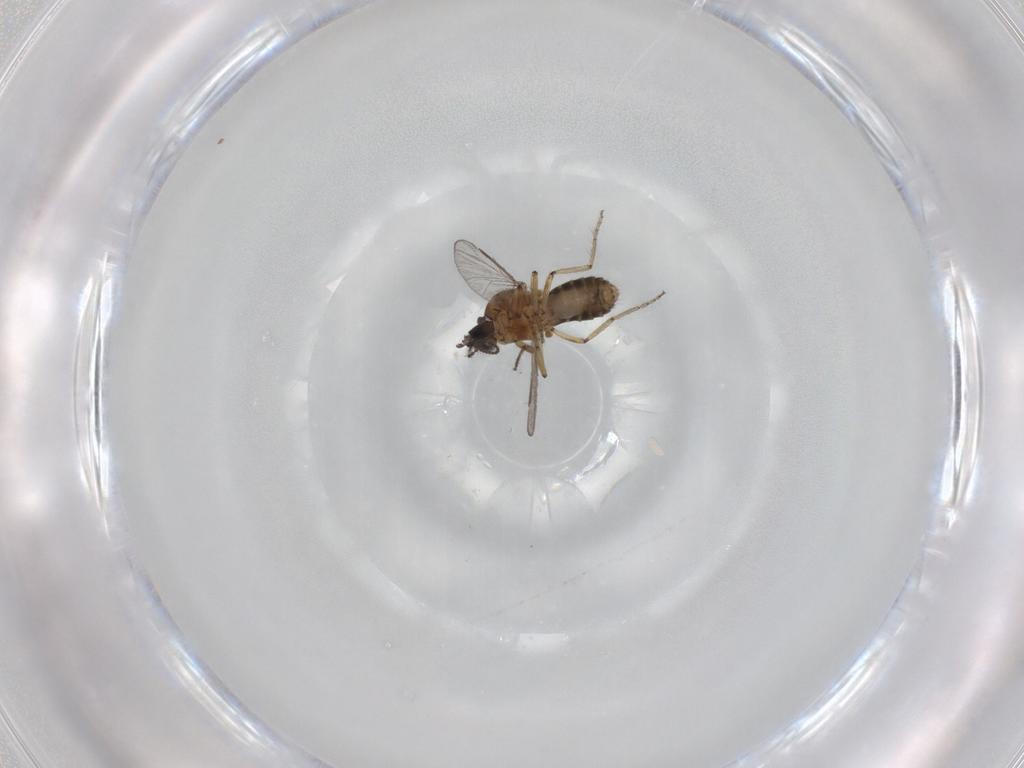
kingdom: Animalia
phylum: Arthropoda
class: Insecta
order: Diptera
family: Ceratopogonidae
